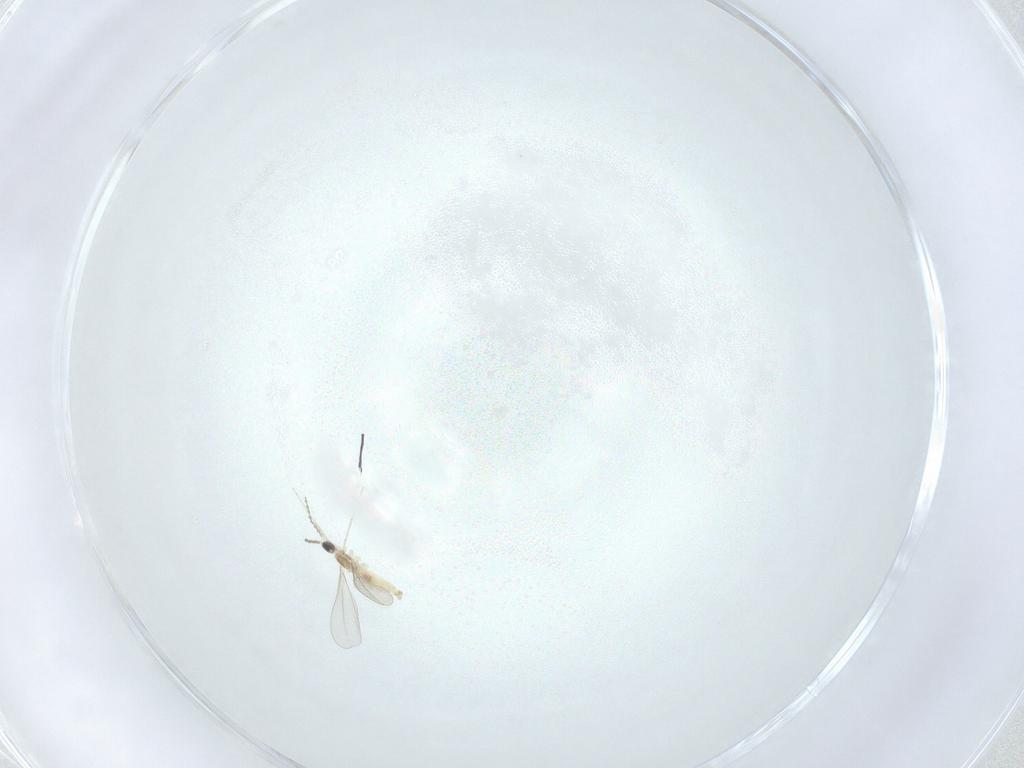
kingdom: Animalia
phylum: Arthropoda
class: Insecta
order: Diptera
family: Cecidomyiidae
